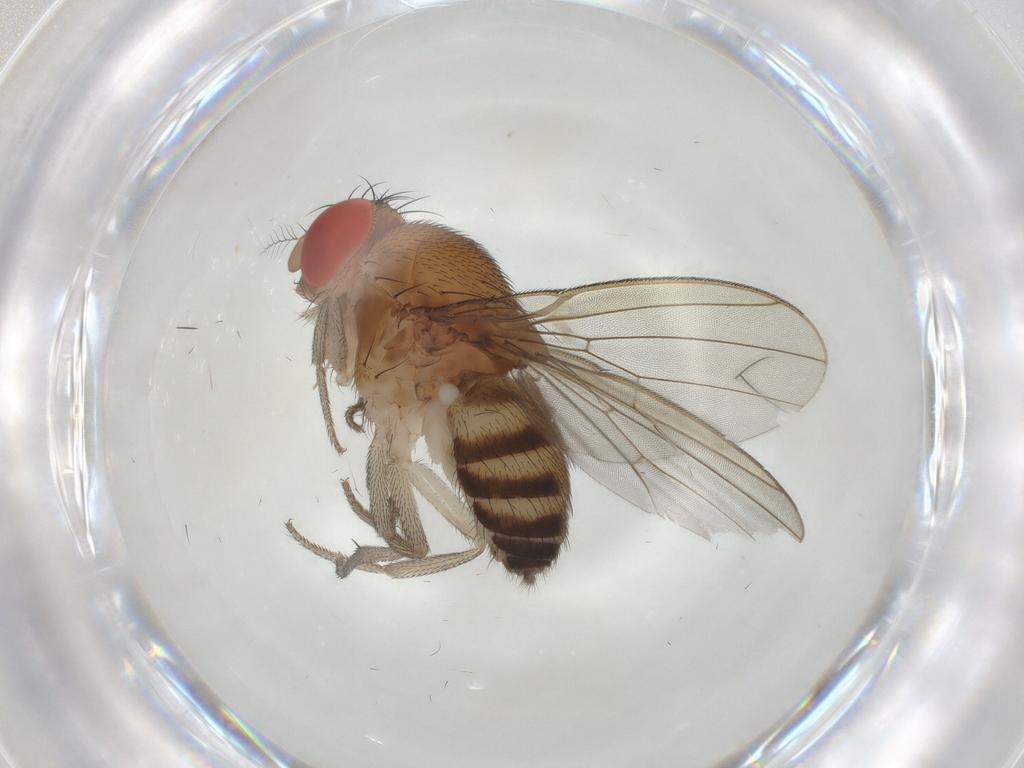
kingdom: Animalia
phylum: Arthropoda
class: Insecta
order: Diptera
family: Drosophilidae
